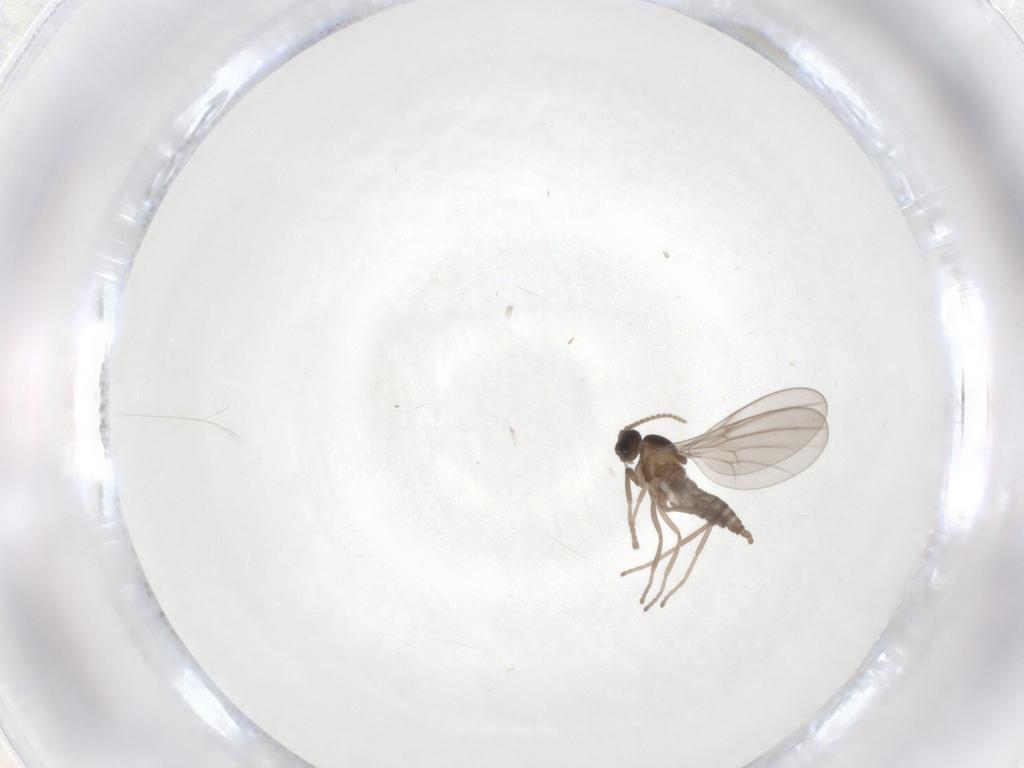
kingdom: Animalia
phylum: Arthropoda
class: Insecta
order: Diptera
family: Cecidomyiidae
